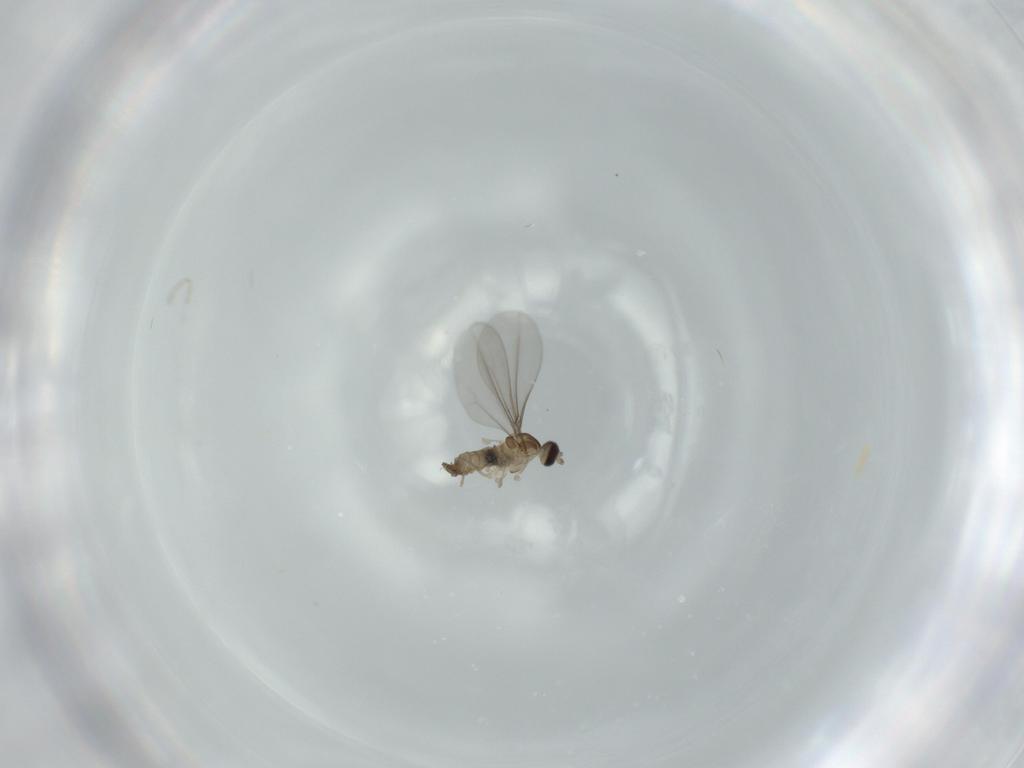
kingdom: Animalia
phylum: Arthropoda
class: Insecta
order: Diptera
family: Cecidomyiidae
